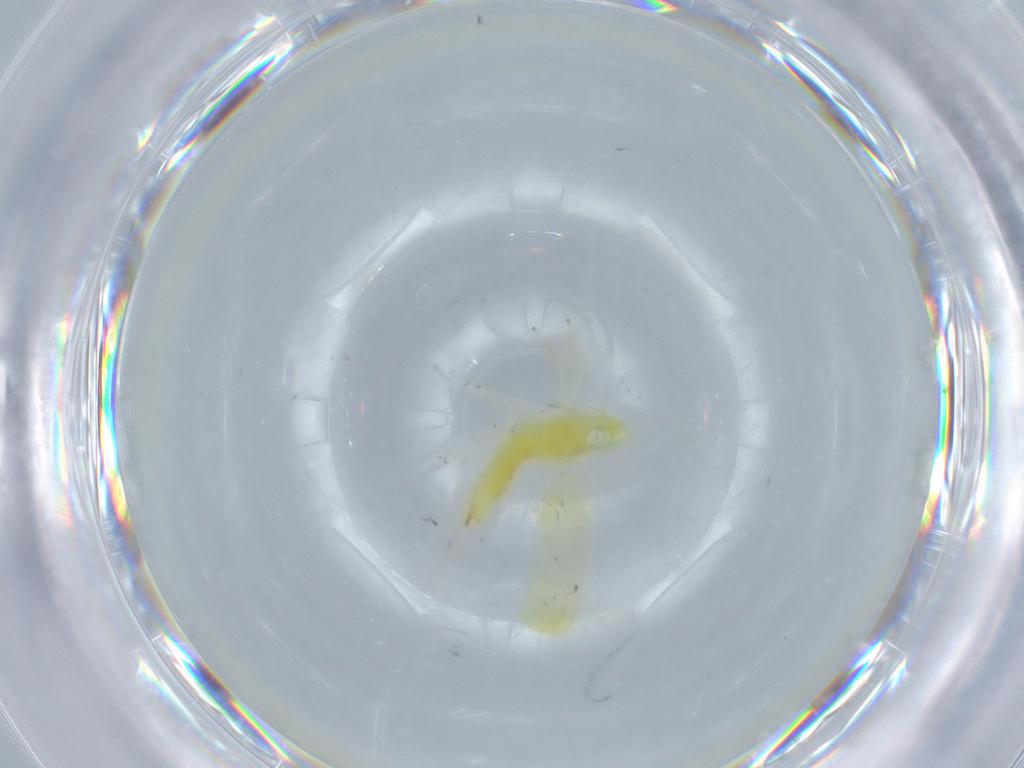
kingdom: Animalia
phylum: Arthropoda
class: Insecta
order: Hemiptera
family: Cicadellidae
